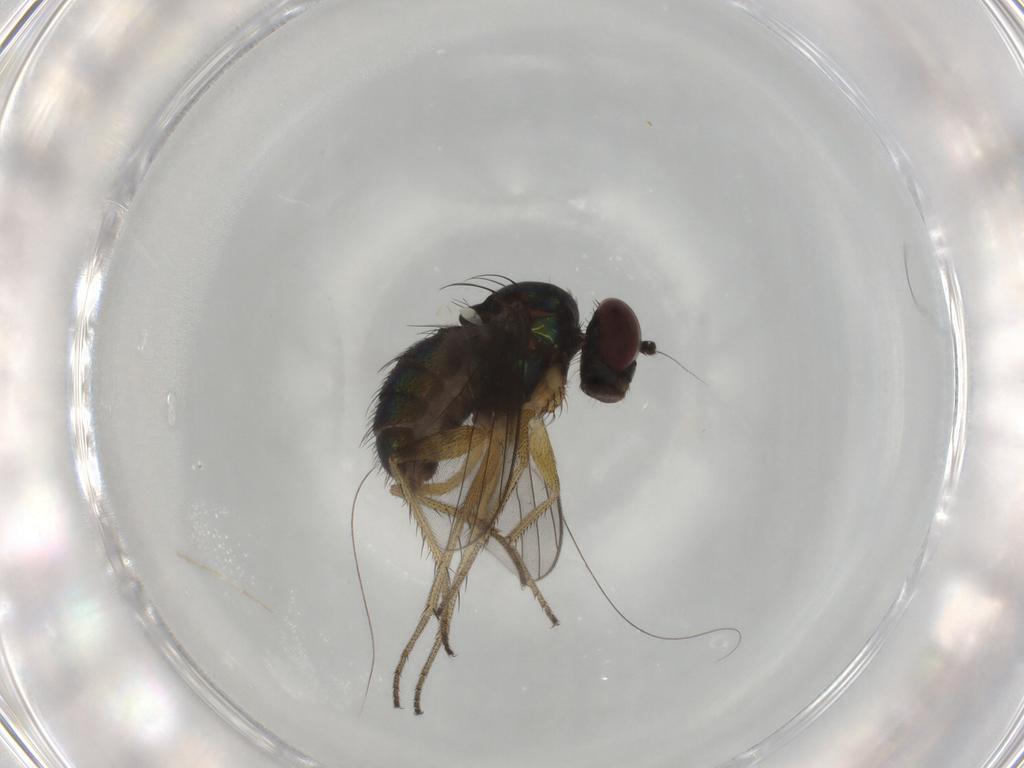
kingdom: Animalia
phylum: Arthropoda
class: Insecta
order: Diptera
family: Dolichopodidae
